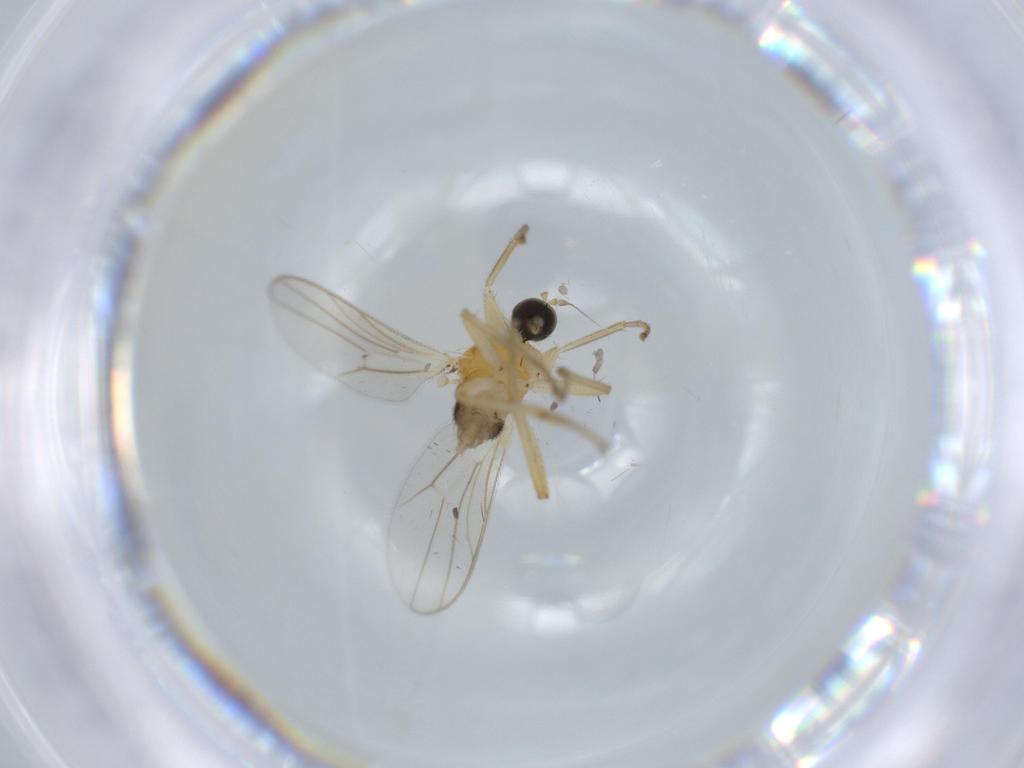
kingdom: Animalia
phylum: Arthropoda
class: Insecta
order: Diptera
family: Hybotidae
